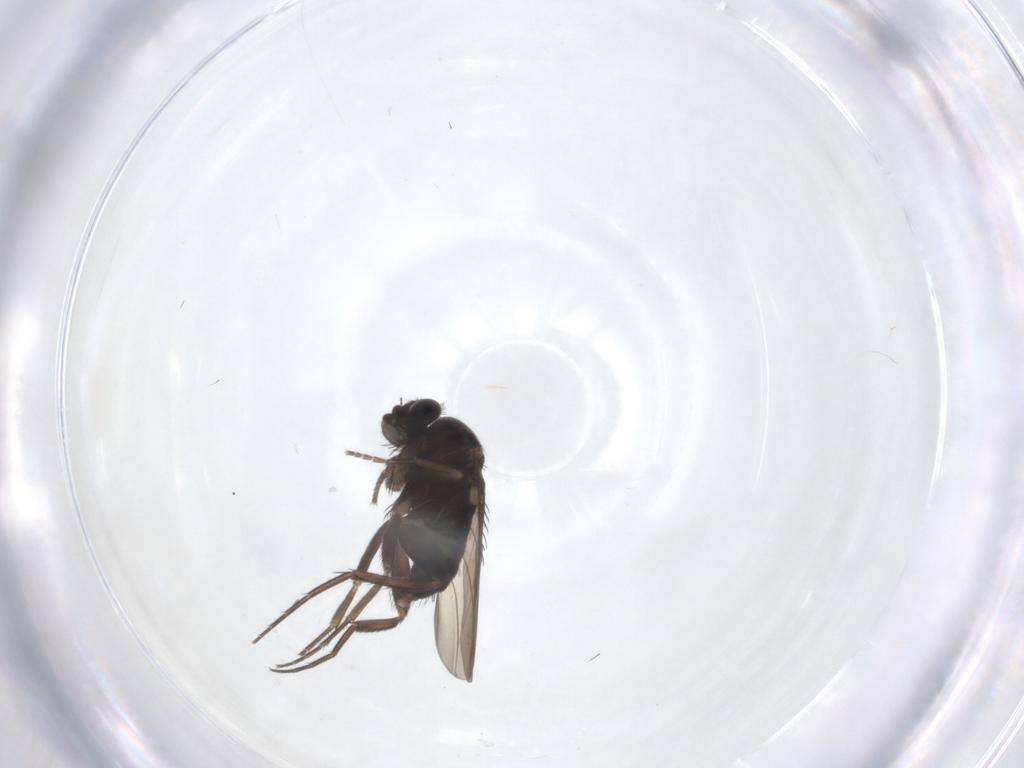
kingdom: Animalia
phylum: Arthropoda
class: Insecta
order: Diptera
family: Phoridae
